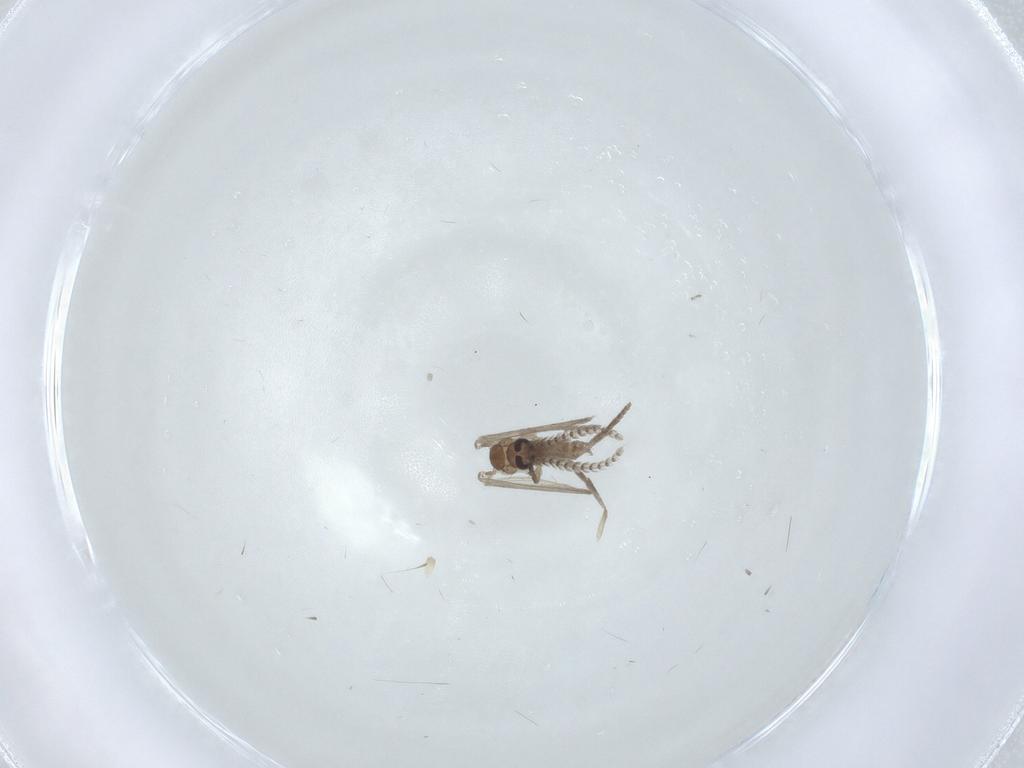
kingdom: Animalia
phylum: Arthropoda
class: Insecta
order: Diptera
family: Psychodidae
